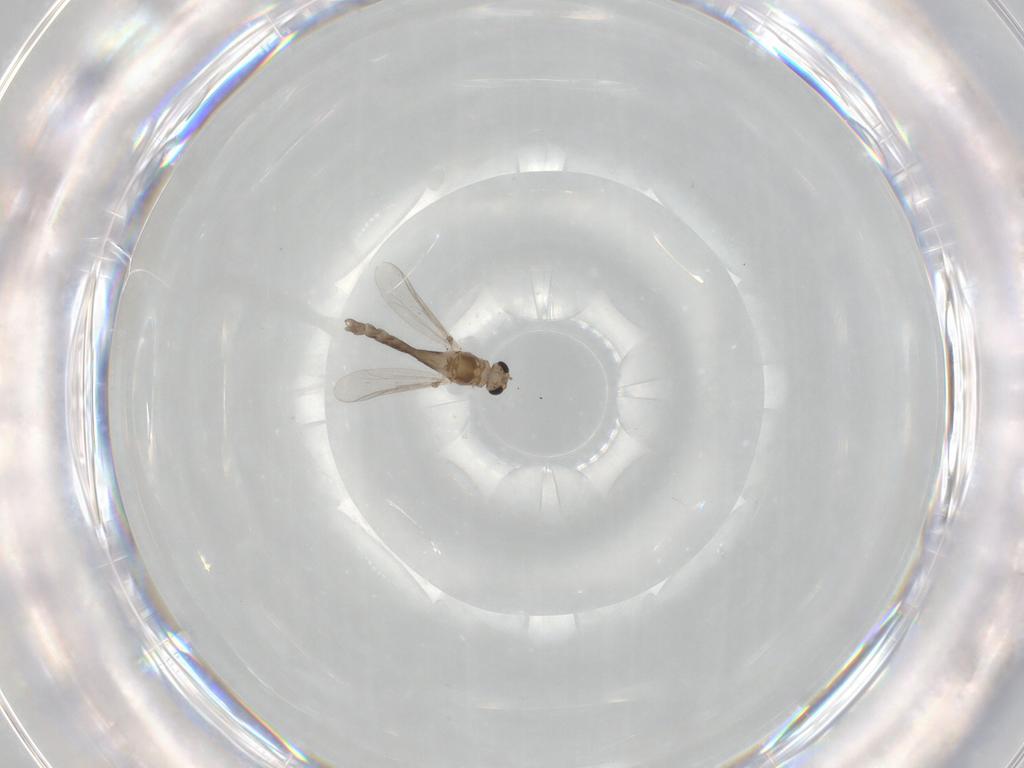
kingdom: Animalia
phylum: Arthropoda
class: Insecta
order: Diptera
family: Chironomidae
